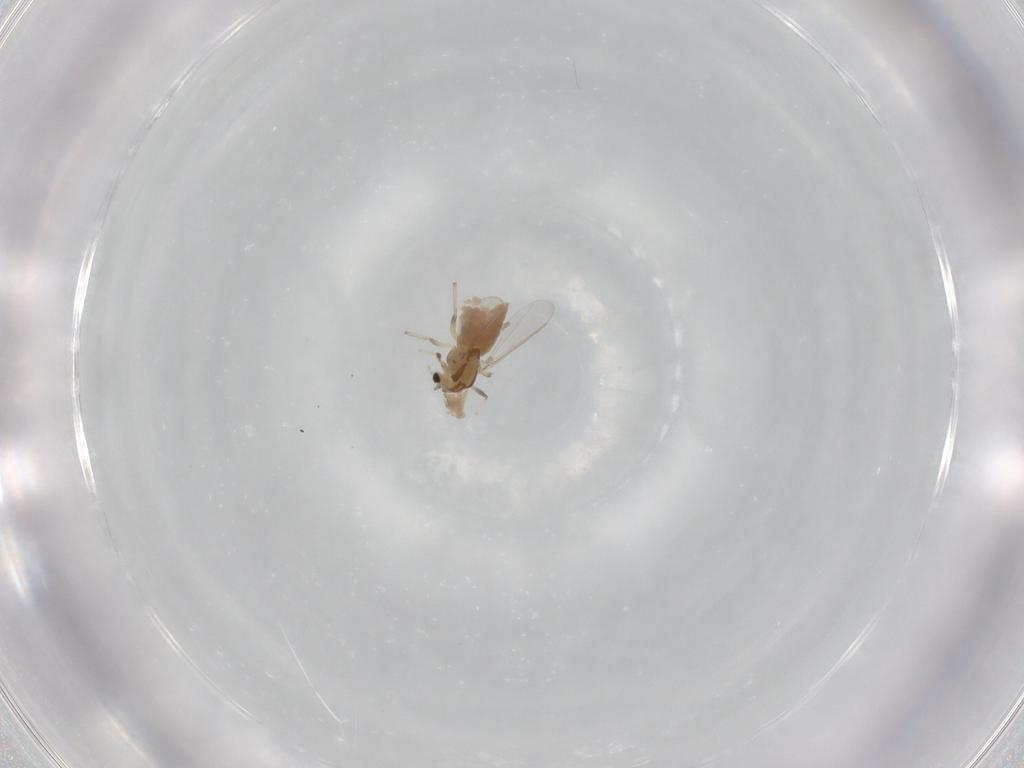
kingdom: Animalia
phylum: Arthropoda
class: Insecta
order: Diptera
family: Chironomidae
